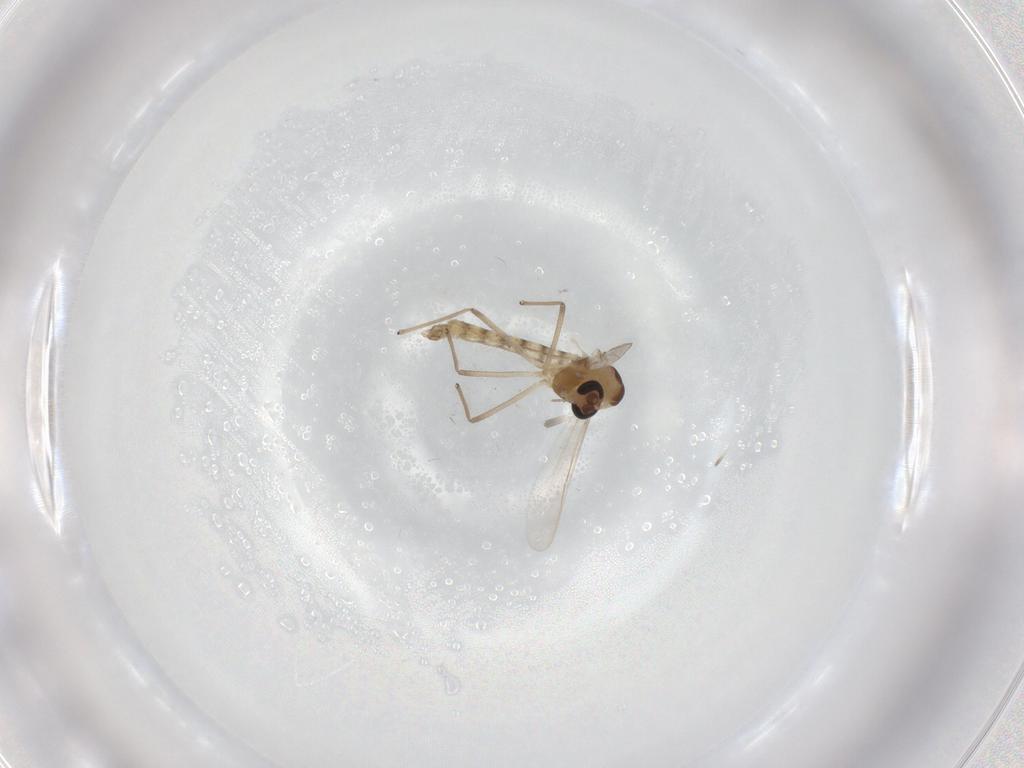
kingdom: Animalia
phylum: Arthropoda
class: Insecta
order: Diptera
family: Chironomidae
